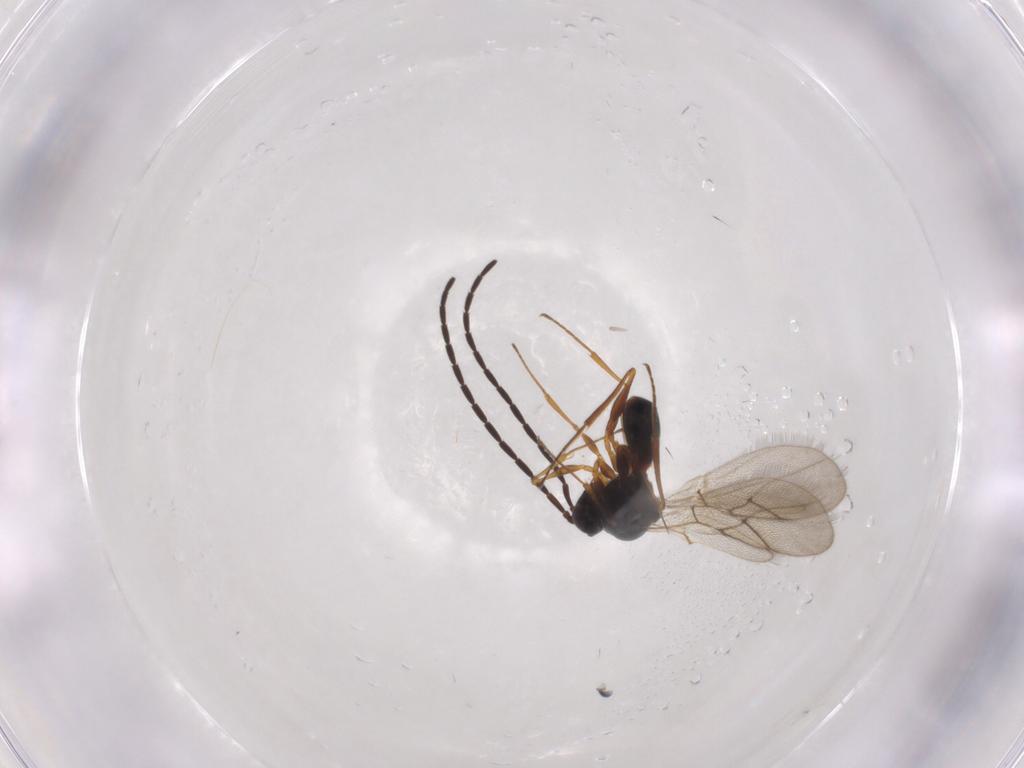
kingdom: Animalia
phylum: Arthropoda
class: Insecta
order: Hymenoptera
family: Figitidae
